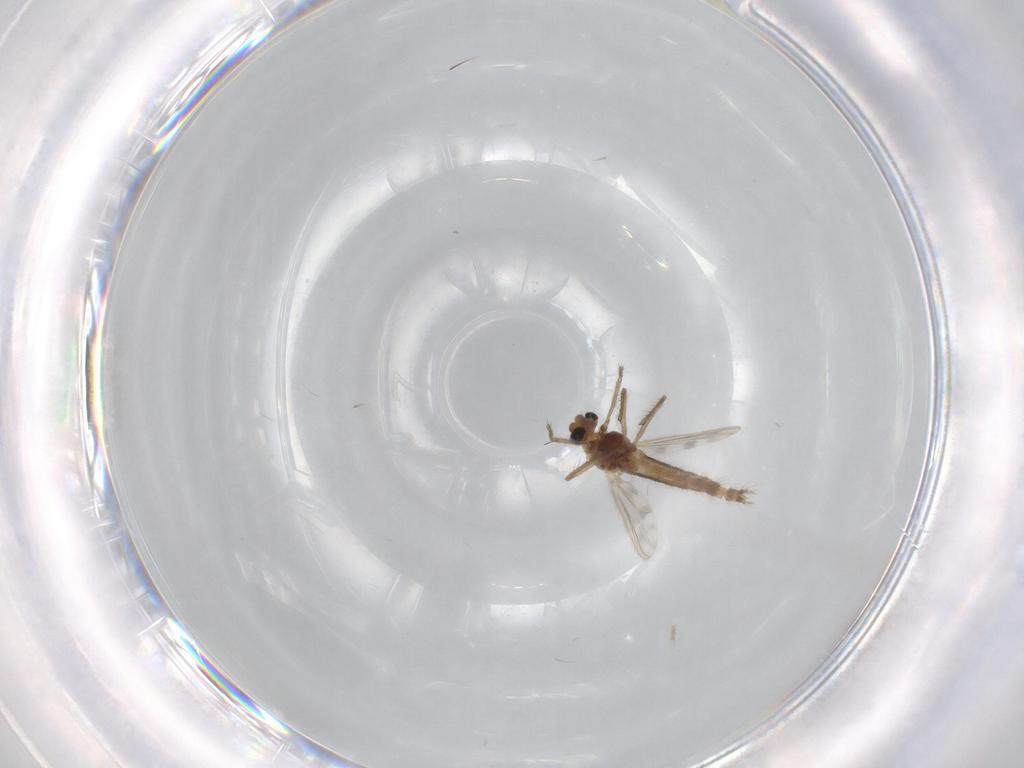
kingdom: Animalia
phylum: Arthropoda
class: Insecta
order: Diptera
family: Chironomidae
